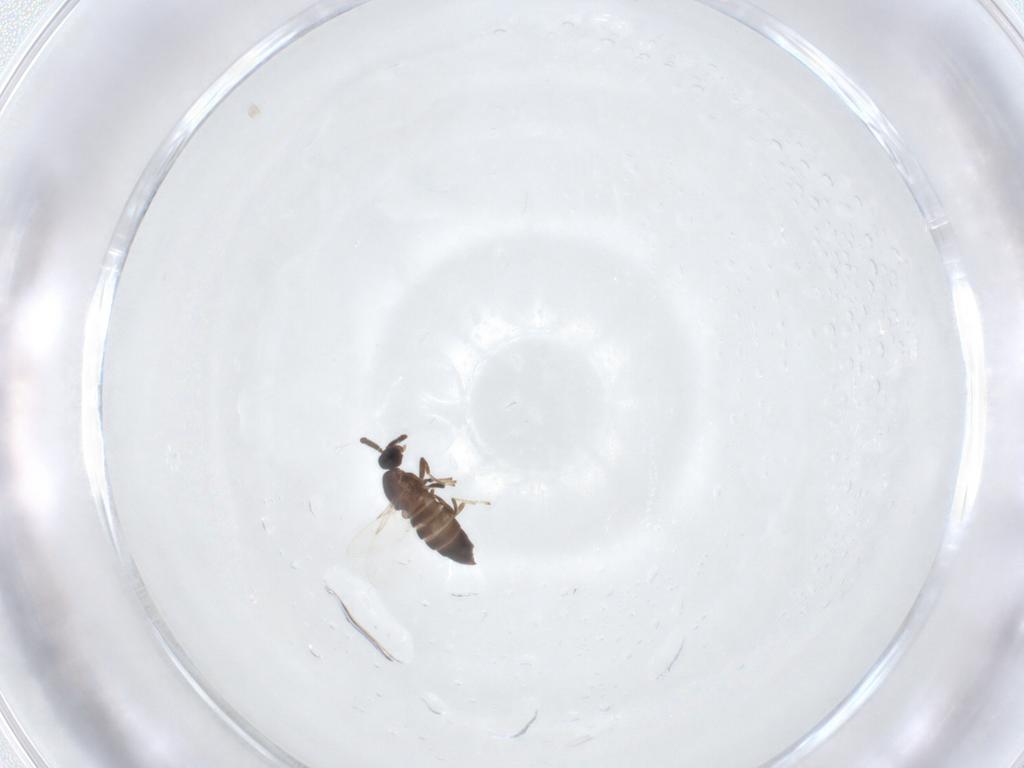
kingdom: Animalia
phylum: Arthropoda
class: Insecta
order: Diptera
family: Scatopsidae
